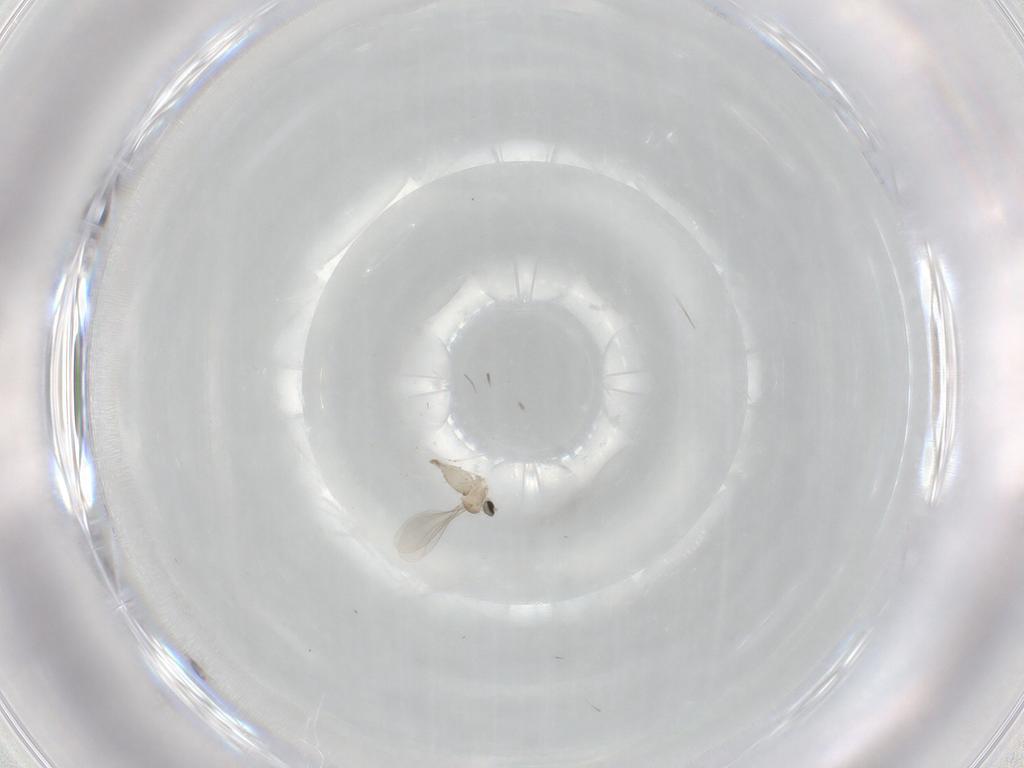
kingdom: Animalia
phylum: Arthropoda
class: Insecta
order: Diptera
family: Cecidomyiidae
